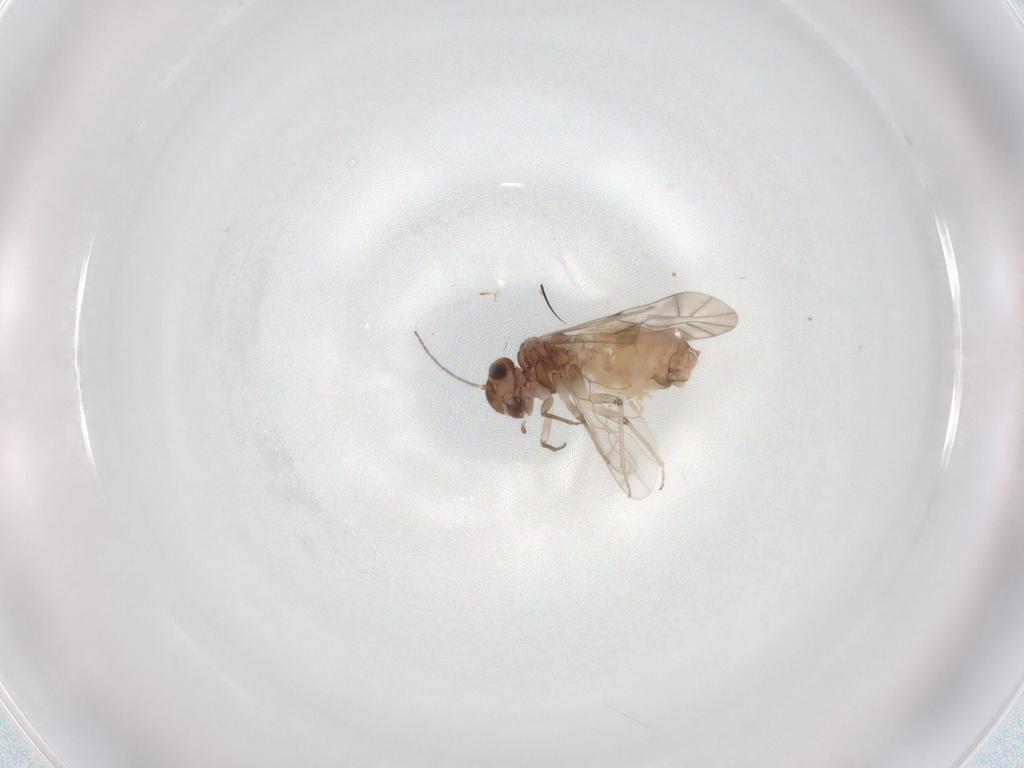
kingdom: Animalia
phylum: Arthropoda
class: Insecta
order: Psocodea
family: Peripsocidae
